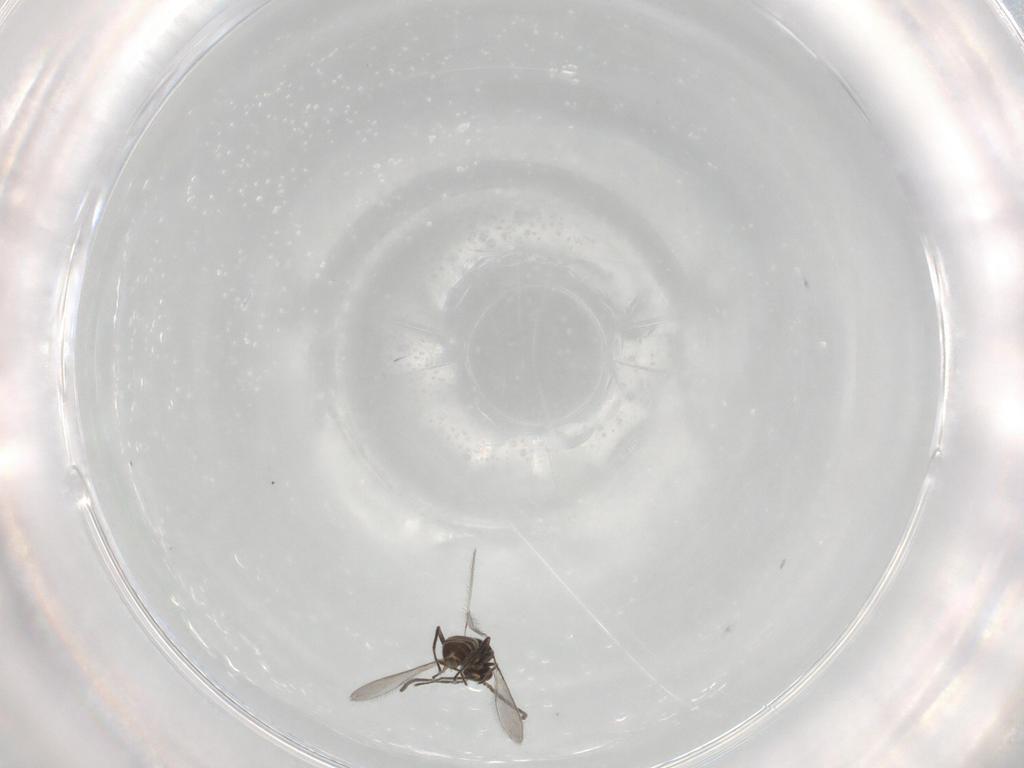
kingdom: Animalia
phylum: Arthropoda
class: Insecta
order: Hymenoptera
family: Mymaridae
